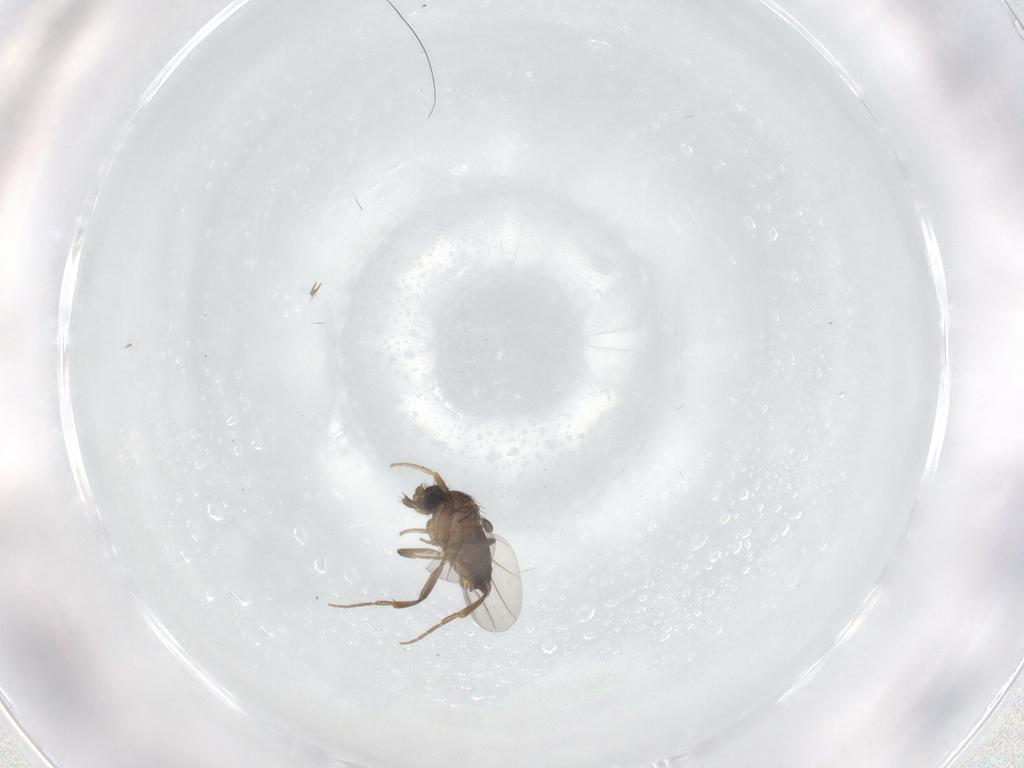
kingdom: Animalia
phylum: Arthropoda
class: Insecta
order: Diptera
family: Phoridae
